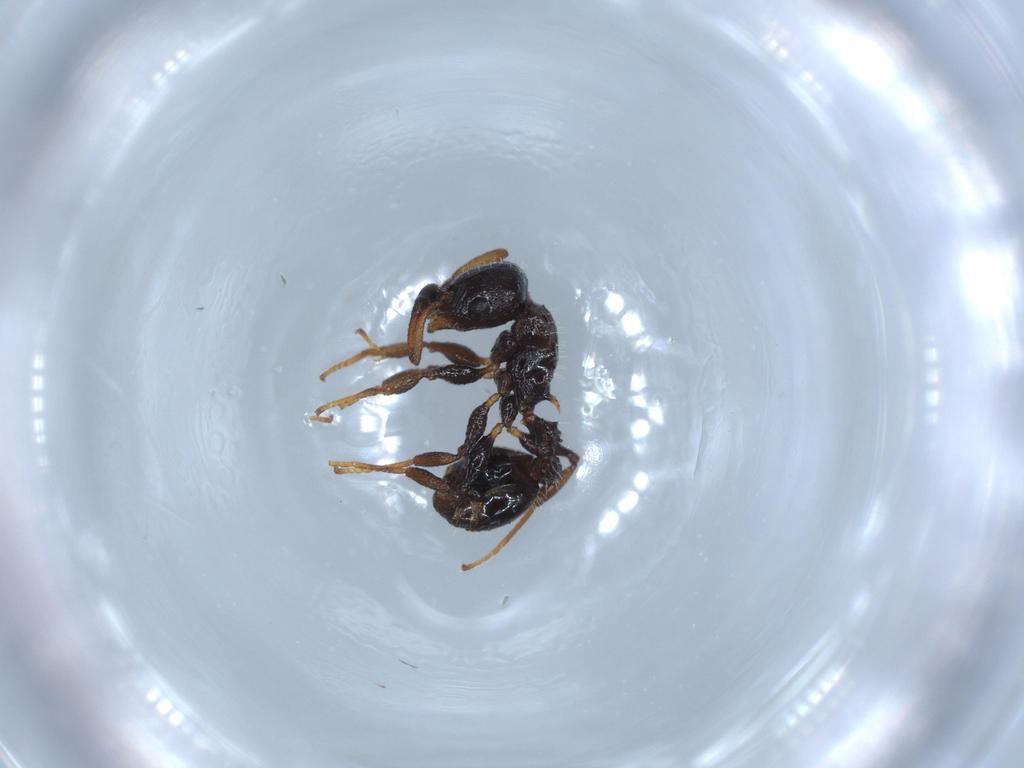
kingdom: Animalia
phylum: Arthropoda
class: Insecta
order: Hymenoptera
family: Formicidae
